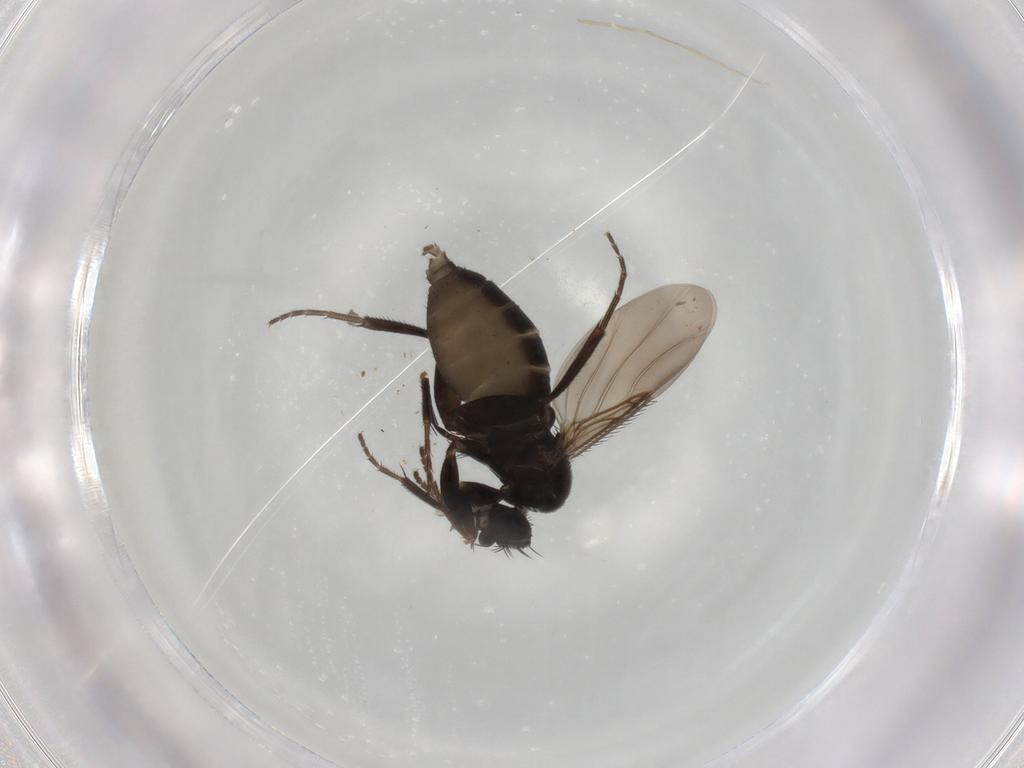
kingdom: Animalia
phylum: Arthropoda
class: Insecta
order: Diptera
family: Phoridae
